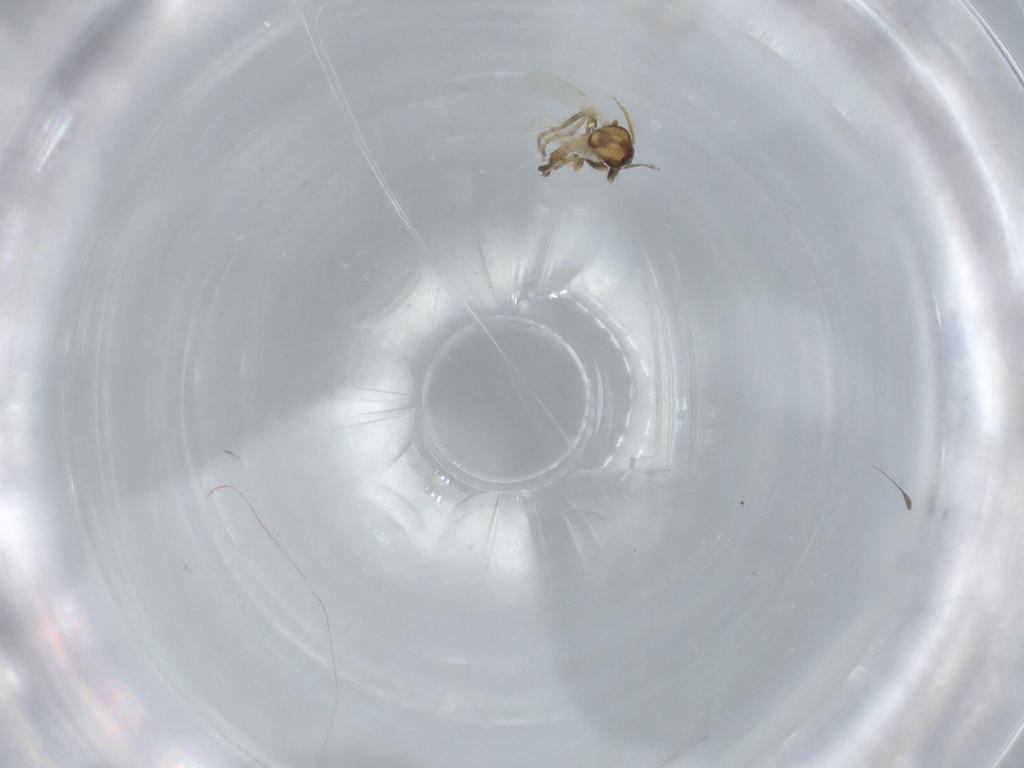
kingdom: Animalia
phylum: Arthropoda
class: Insecta
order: Diptera
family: Ceratopogonidae
